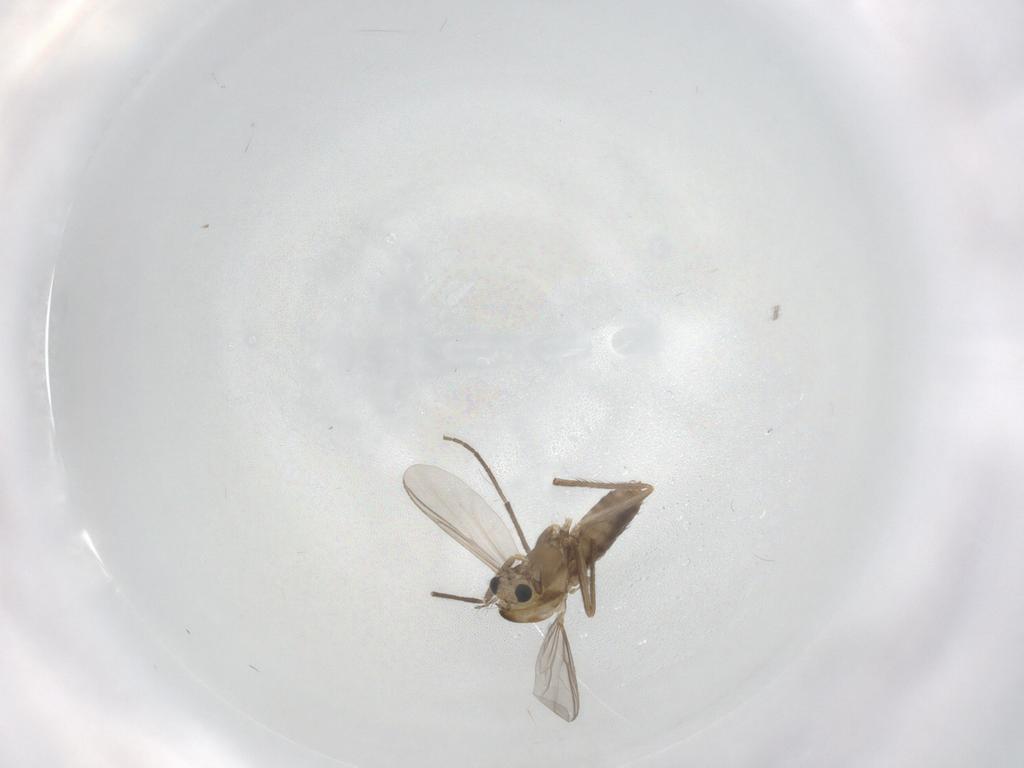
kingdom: Animalia
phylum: Arthropoda
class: Insecta
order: Diptera
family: Chironomidae
